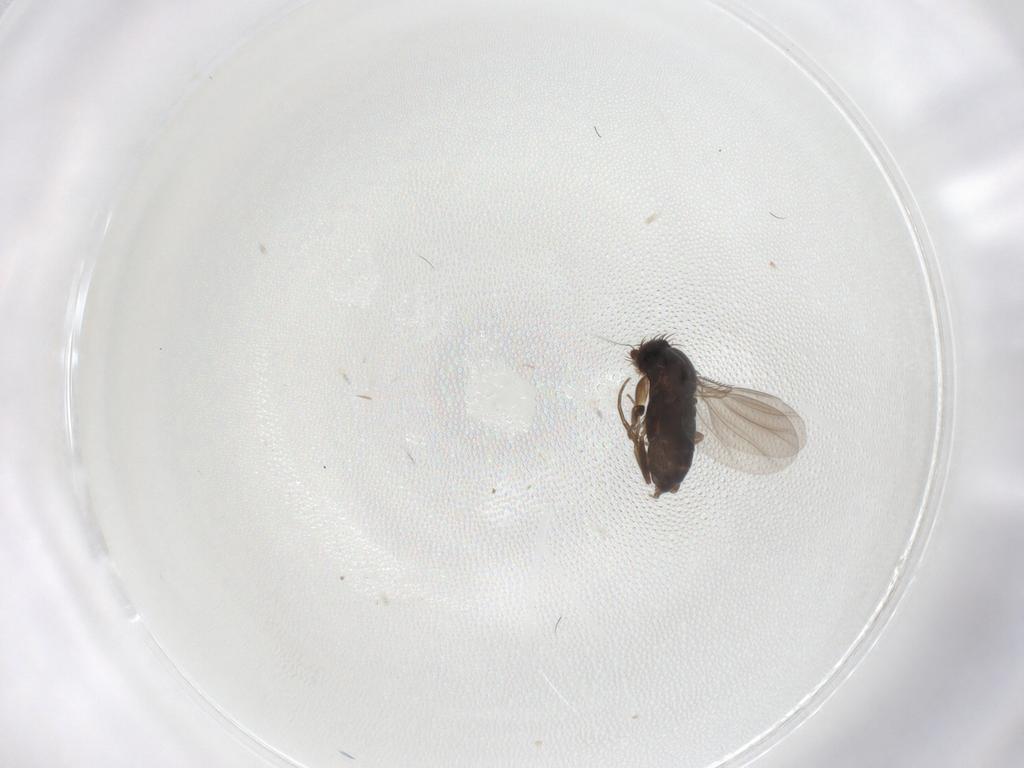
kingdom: Animalia
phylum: Arthropoda
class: Insecta
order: Diptera
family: Phoridae
